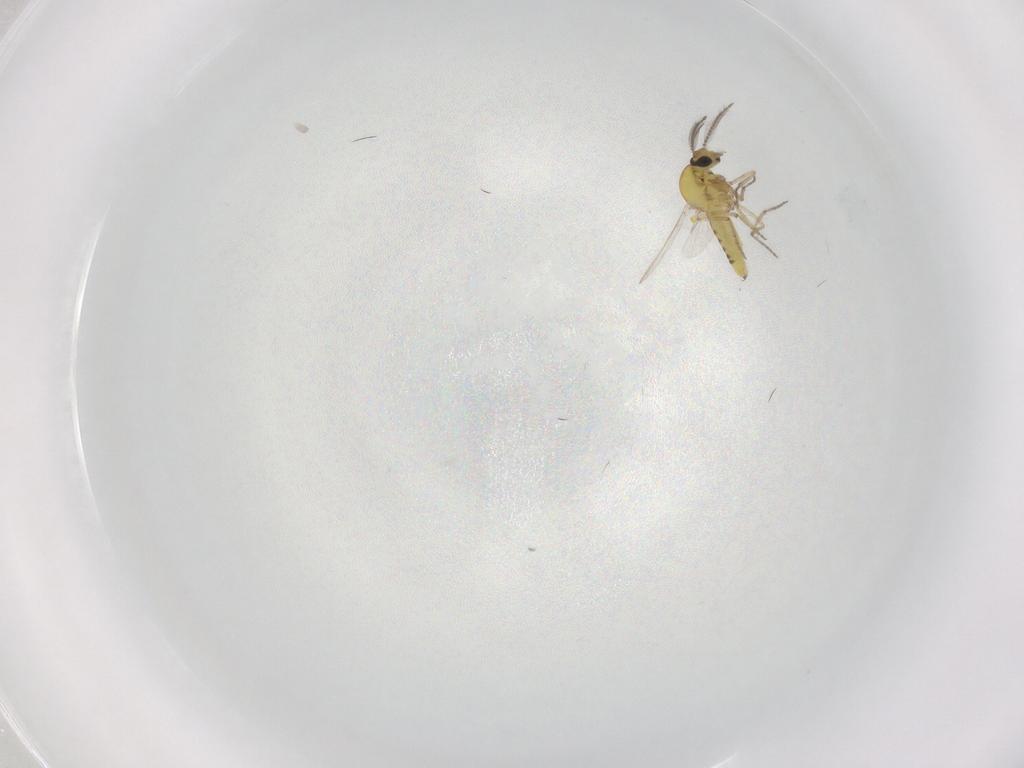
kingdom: Animalia
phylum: Arthropoda
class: Insecta
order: Diptera
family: Ceratopogonidae
